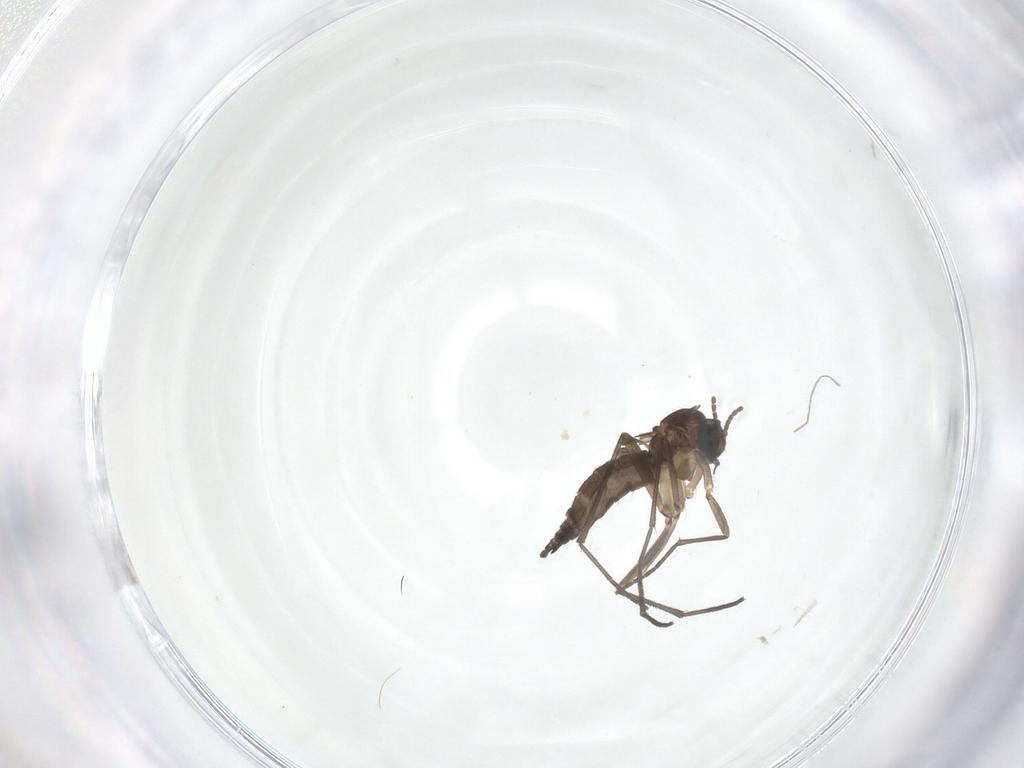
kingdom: Animalia
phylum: Arthropoda
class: Insecta
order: Diptera
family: Sciaridae
